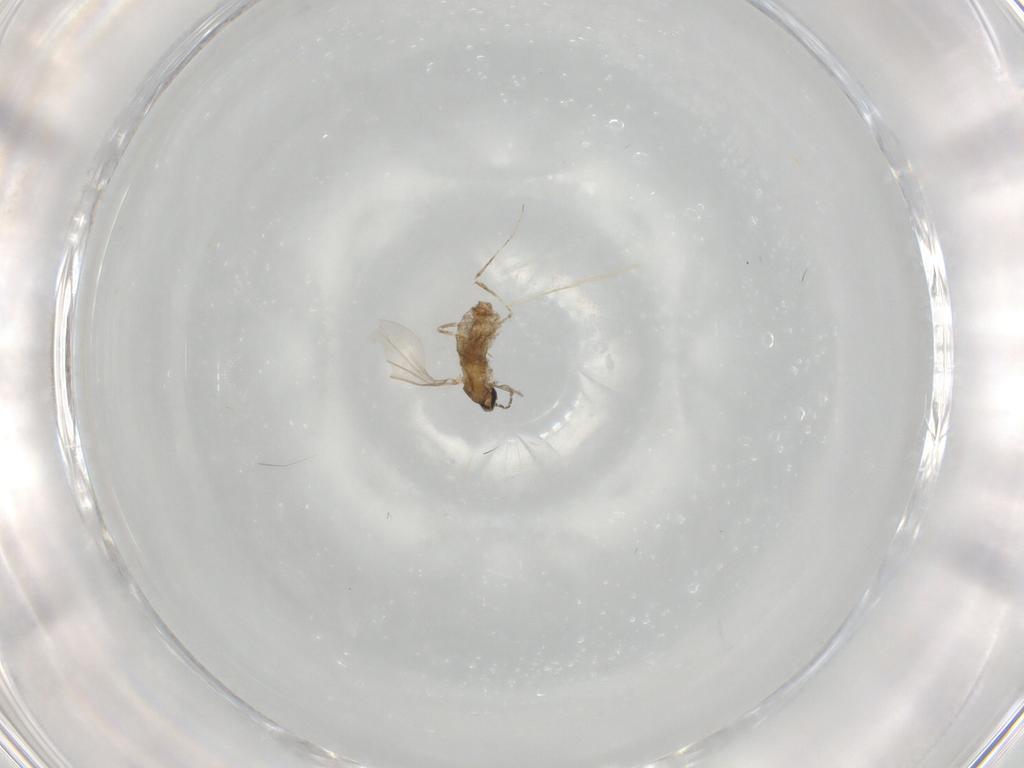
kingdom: Animalia
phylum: Arthropoda
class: Insecta
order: Diptera
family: Cecidomyiidae
